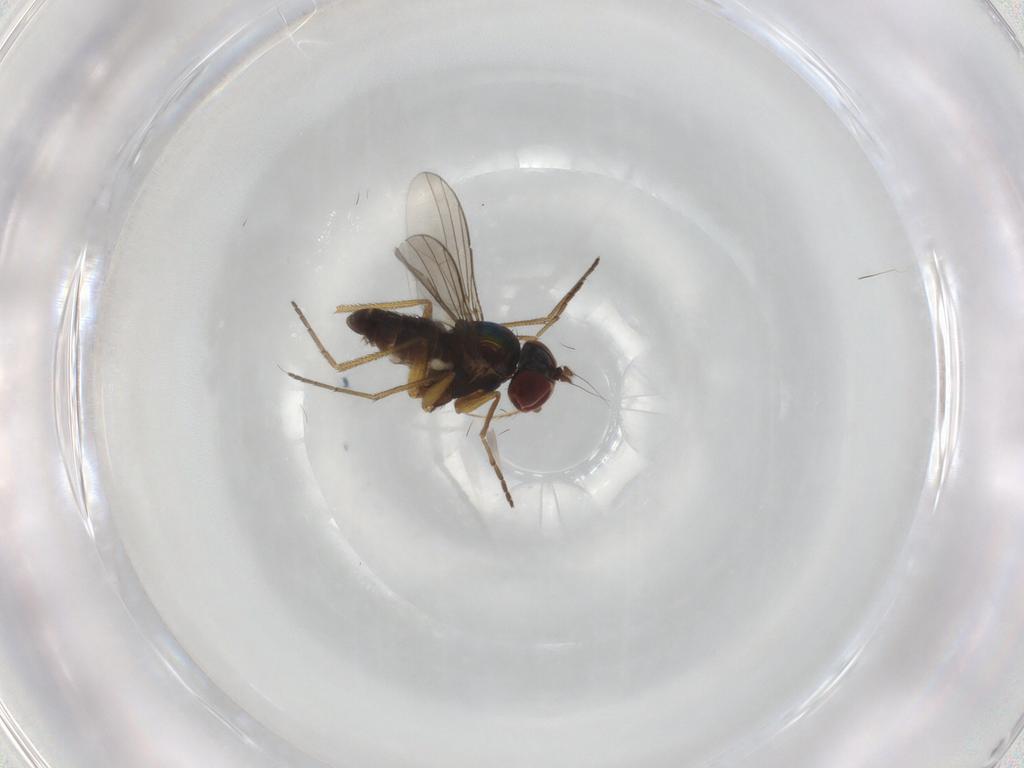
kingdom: Animalia
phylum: Arthropoda
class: Insecta
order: Diptera
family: Dolichopodidae
